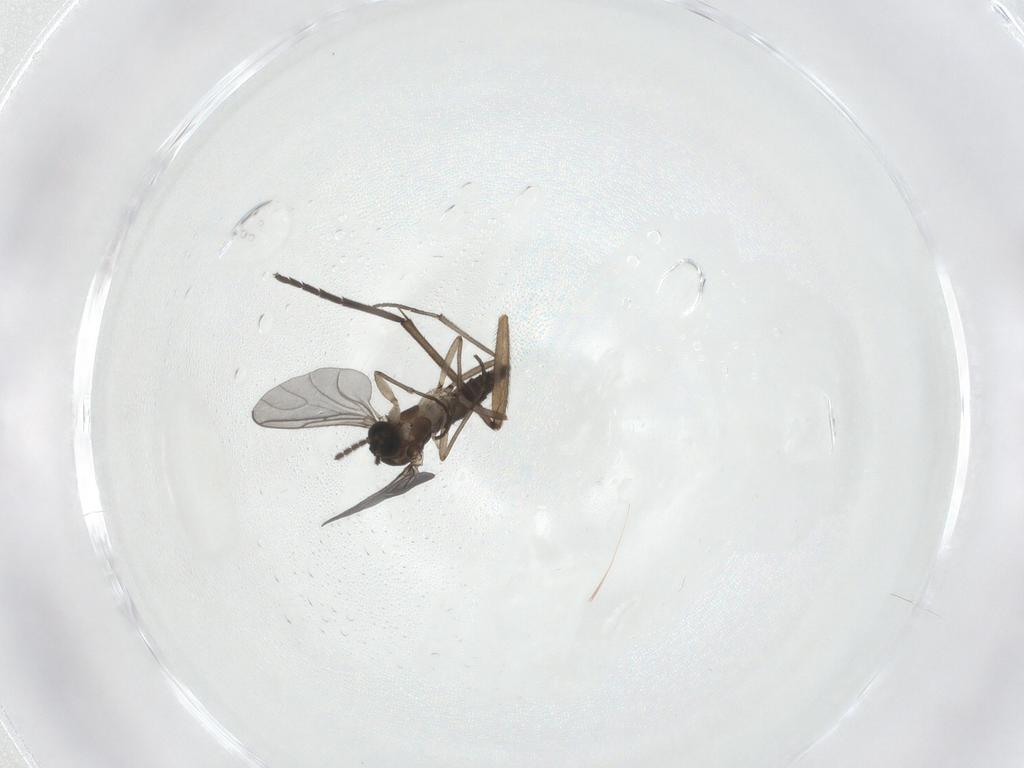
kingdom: Animalia
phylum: Arthropoda
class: Insecta
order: Diptera
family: Sciaridae
